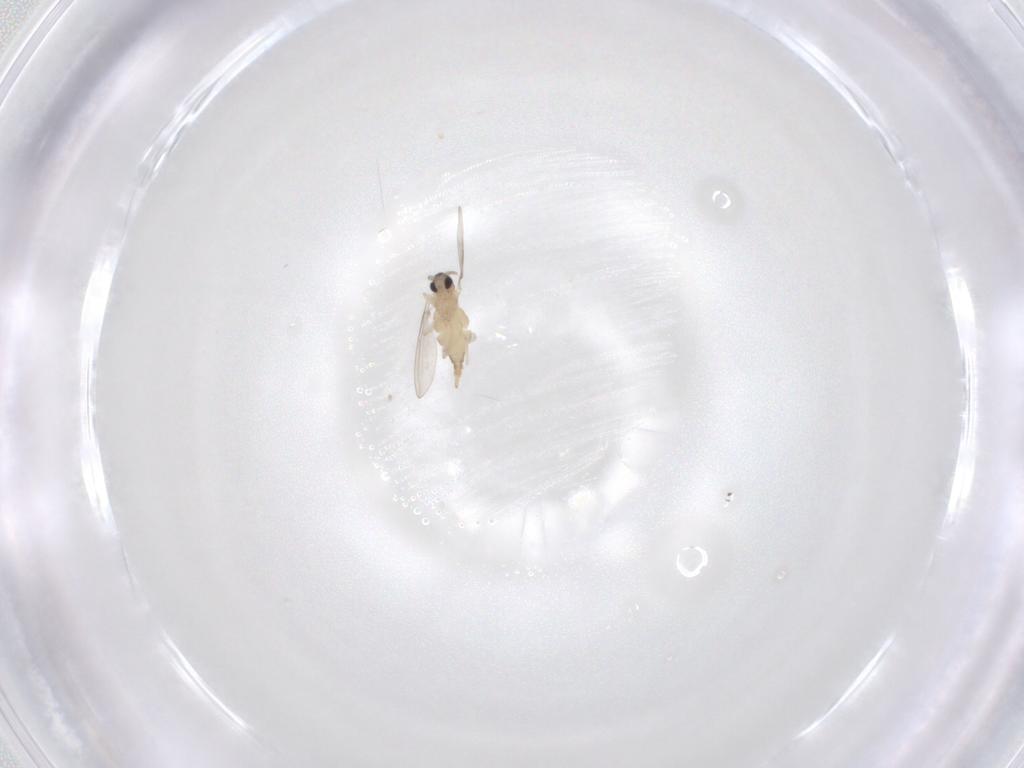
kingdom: Animalia
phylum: Arthropoda
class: Insecta
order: Diptera
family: Cecidomyiidae
